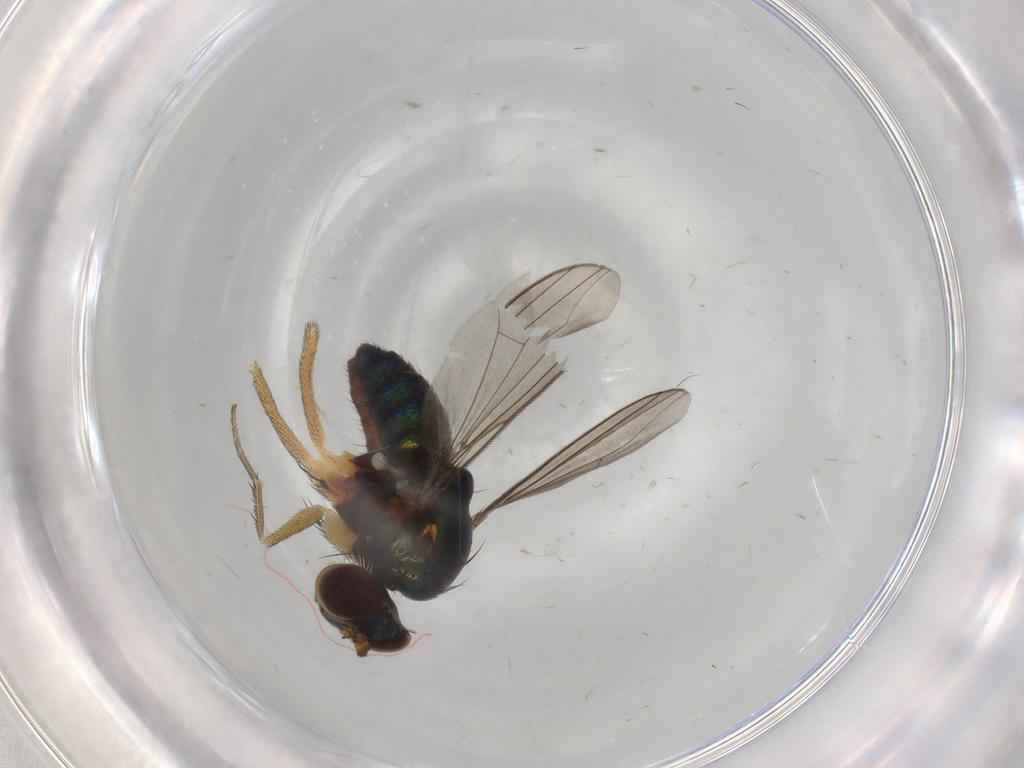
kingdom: Animalia
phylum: Arthropoda
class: Insecta
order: Diptera
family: Dolichopodidae
